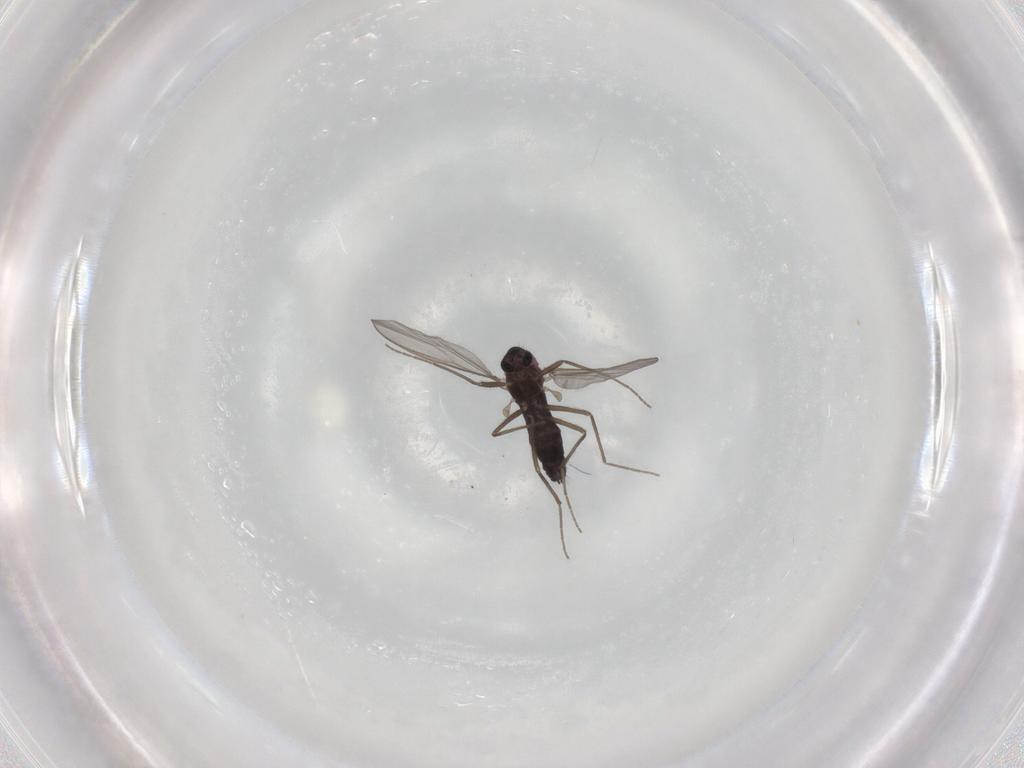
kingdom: Animalia
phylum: Arthropoda
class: Insecta
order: Diptera
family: Chironomidae
